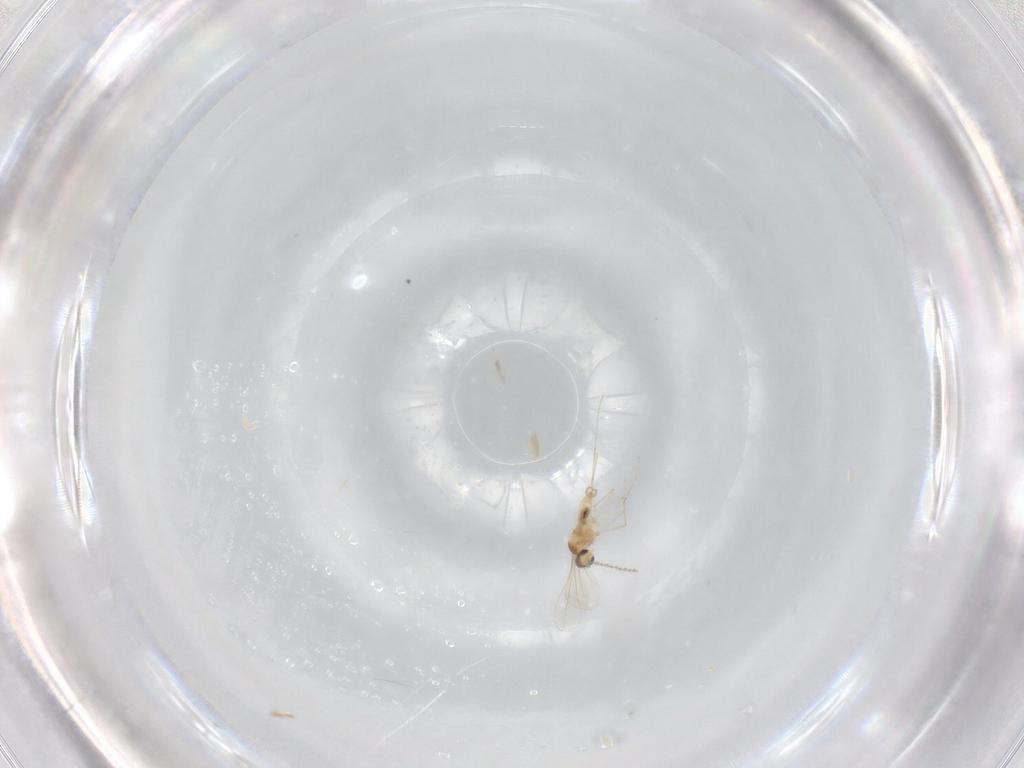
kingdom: Animalia
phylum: Arthropoda
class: Insecta
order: Diptera
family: Cecidomyiidae
